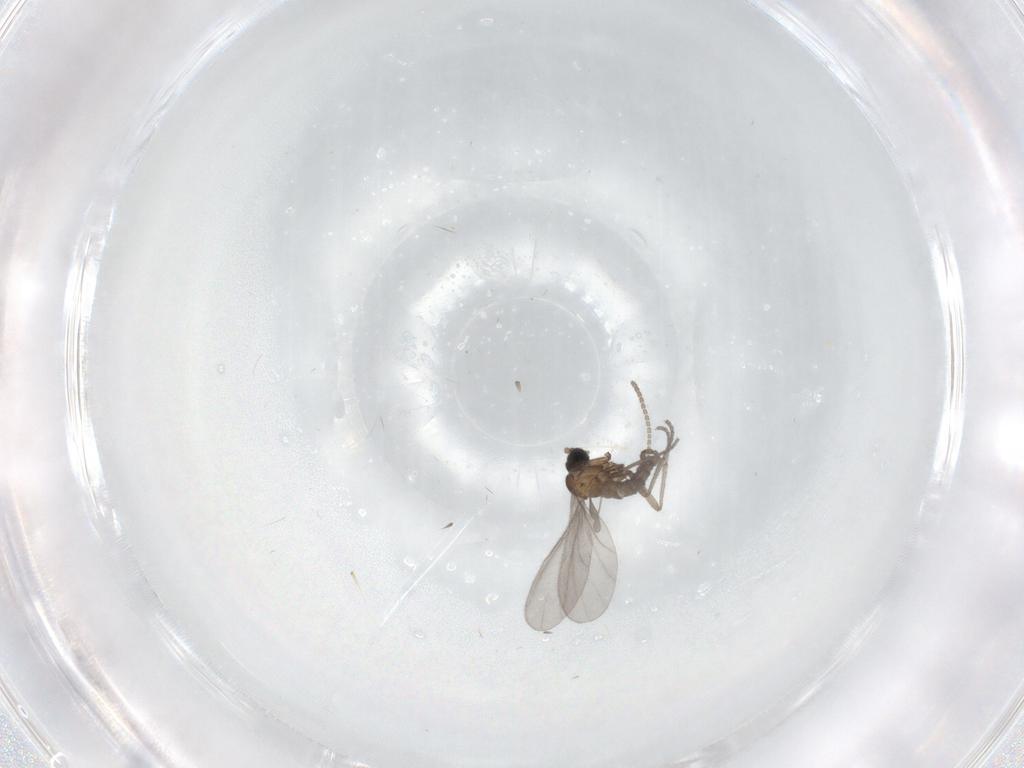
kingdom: Animalia
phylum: Arthropoda
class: Insecta
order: Diptera
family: Sciaridae
